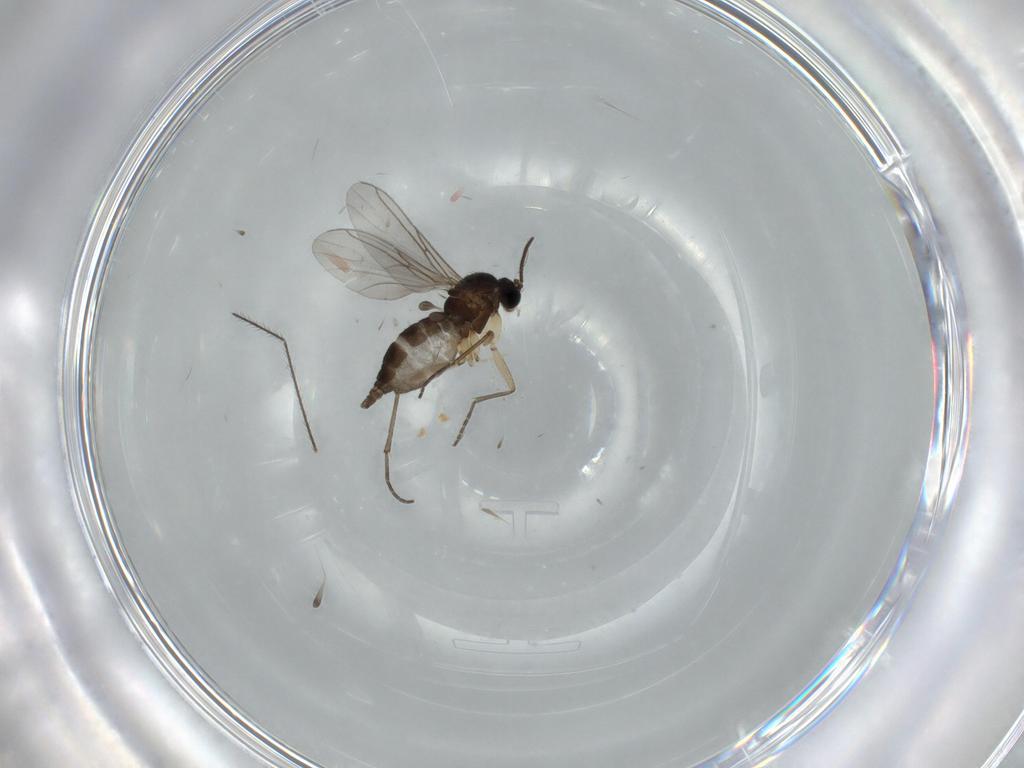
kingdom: Animalia
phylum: Arthropoda
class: Insecta
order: Diptera
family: Sciaridae
